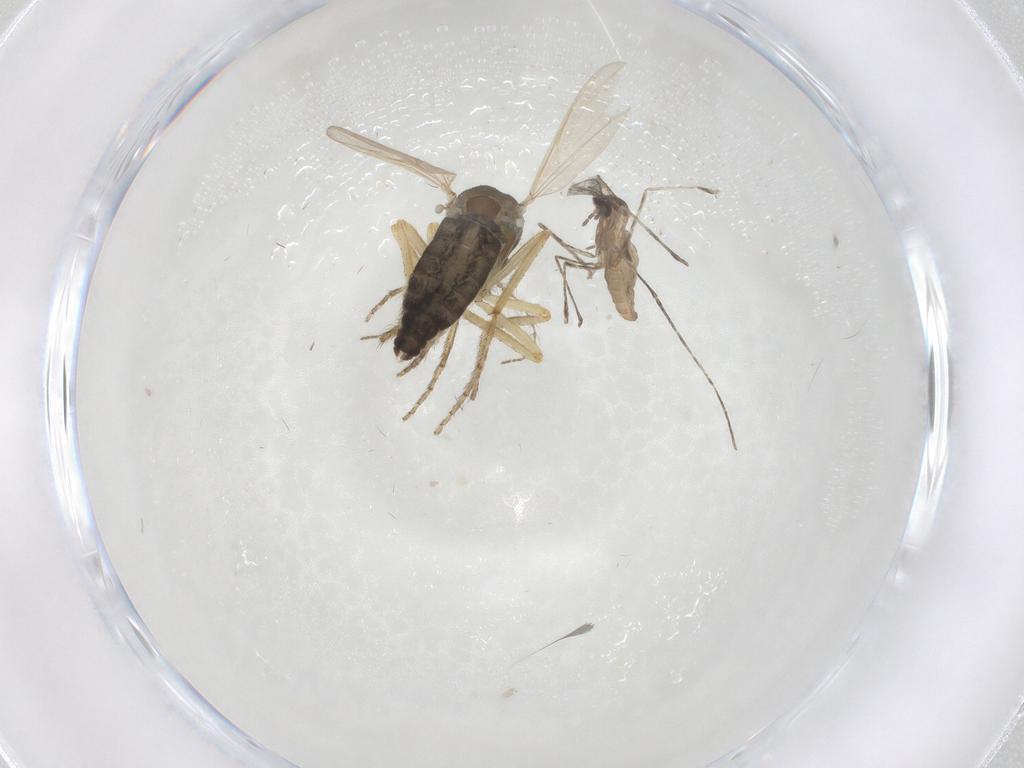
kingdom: Animalia
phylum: Arthropoda
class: Insecta
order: Diptera
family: Ceratopogonidae
